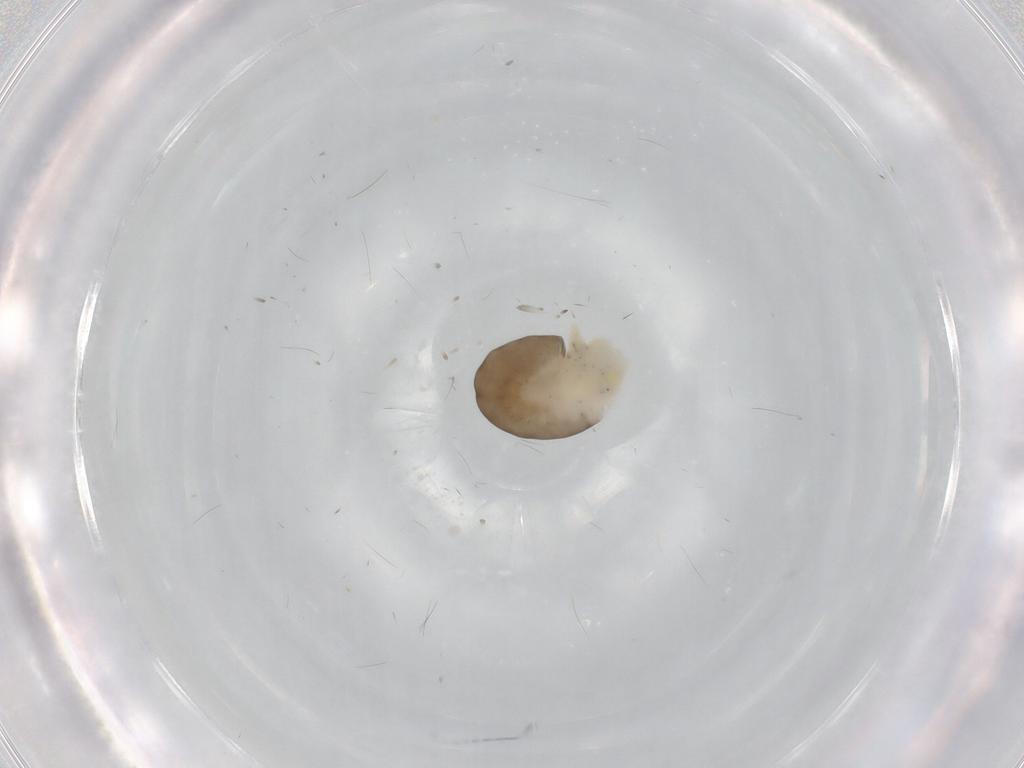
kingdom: Animalia
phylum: Arthropoda
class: Insecta
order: Hymenoptera
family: Dryinidae
